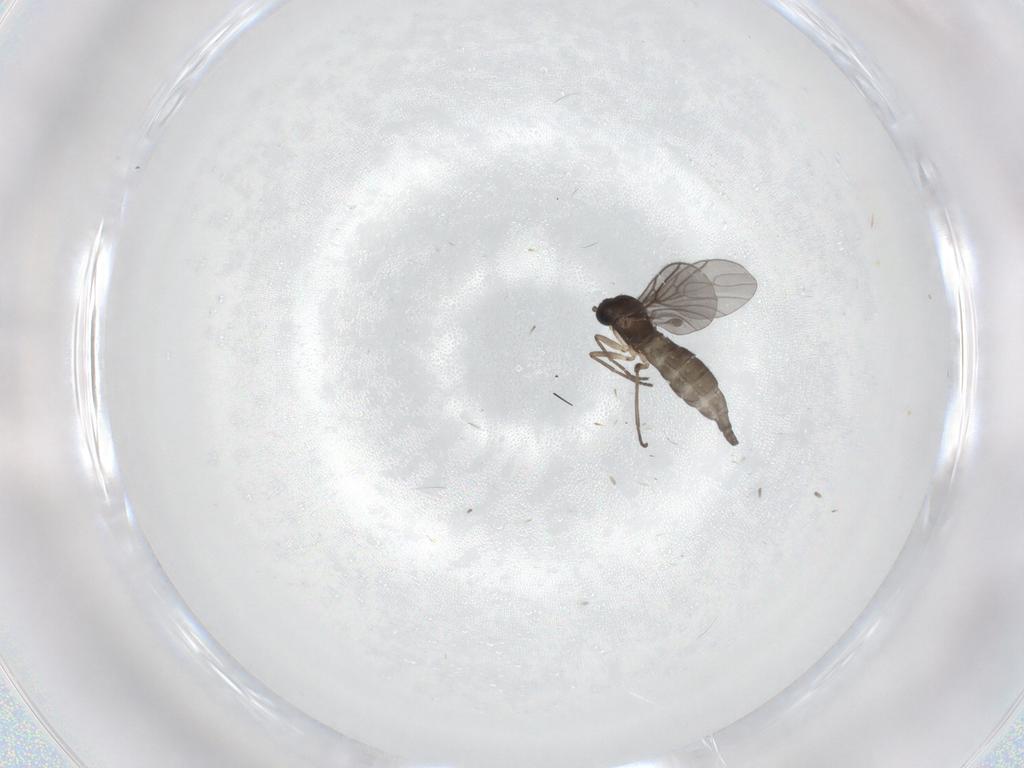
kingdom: Animalia
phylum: Arthropoda
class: Insecta
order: Diptera
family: Sciaridae
